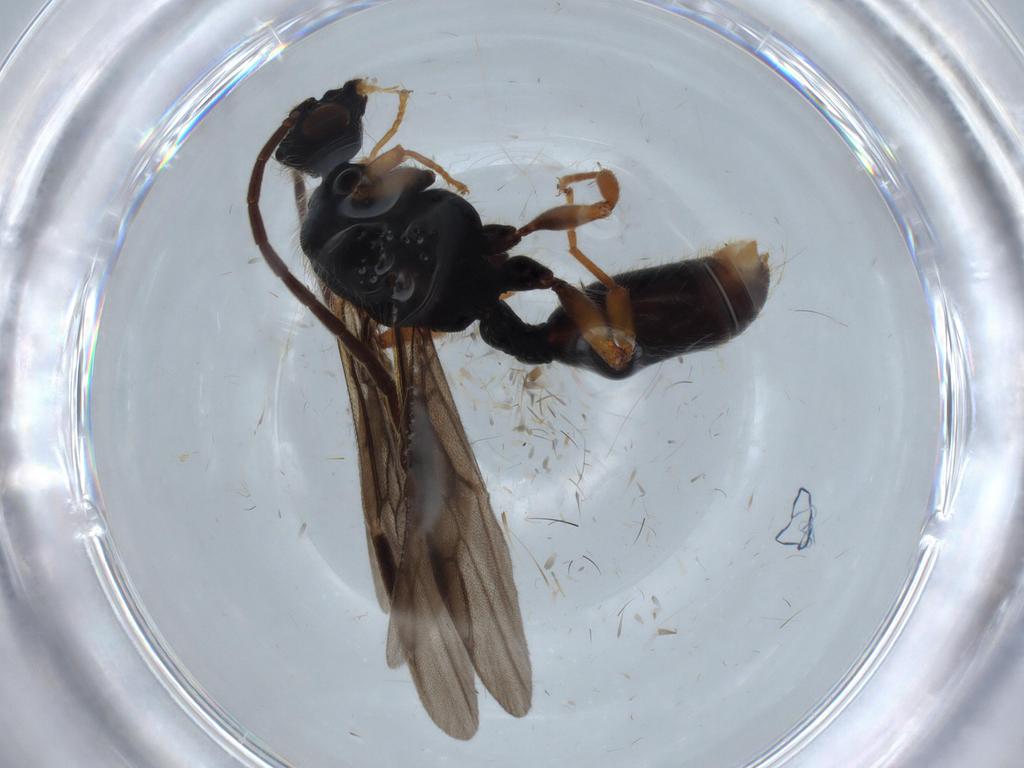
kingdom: Animalia
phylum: Arthropoda
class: Insecta
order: Hymenoptera
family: Formicidae
